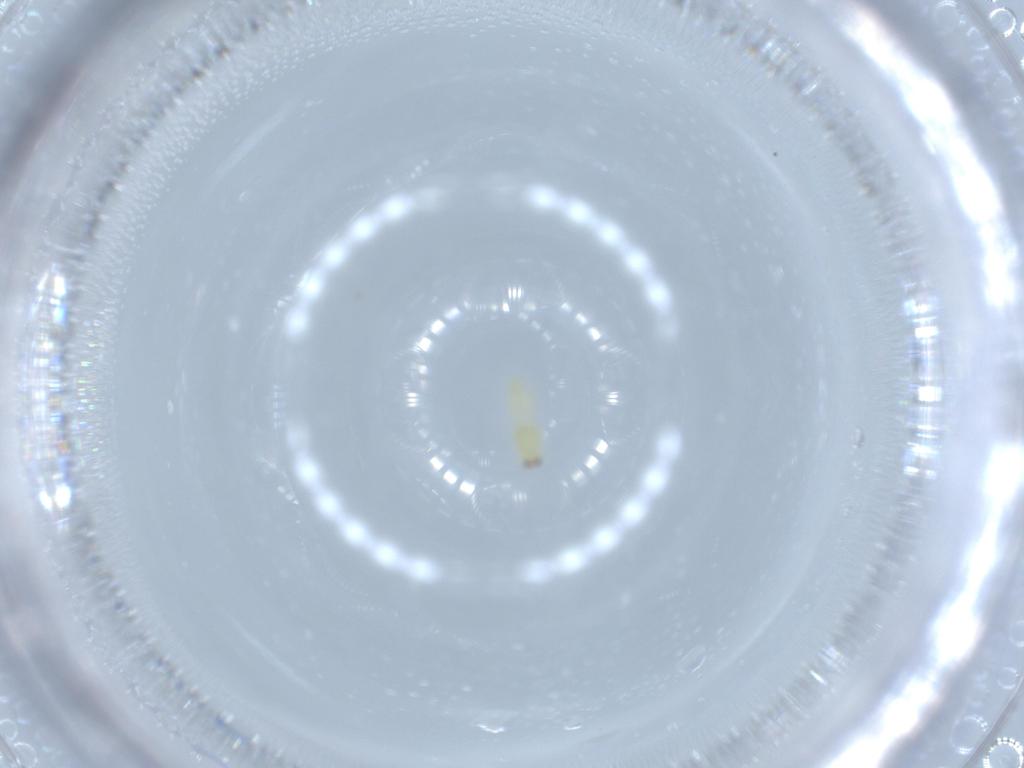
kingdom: Animalia
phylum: Arthropoda
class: Insecta
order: Thysanoptera
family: Thripidae
